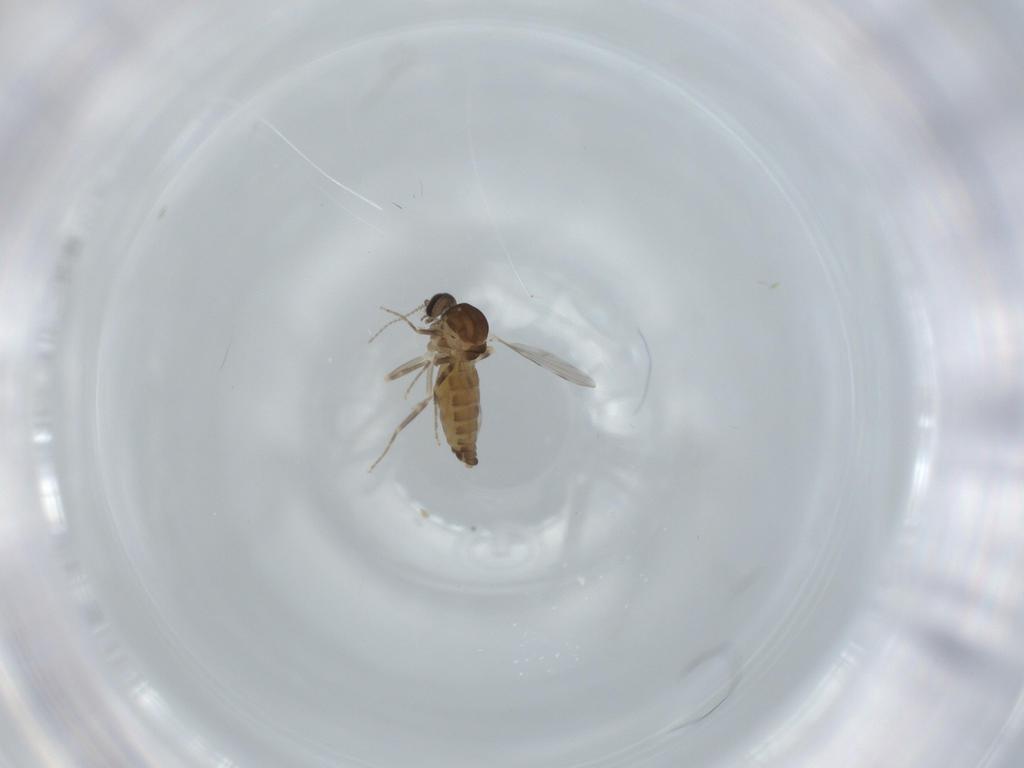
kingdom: Animalia
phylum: Arthropoda
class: Insecta
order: Diptera
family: Ceratopogonidae
